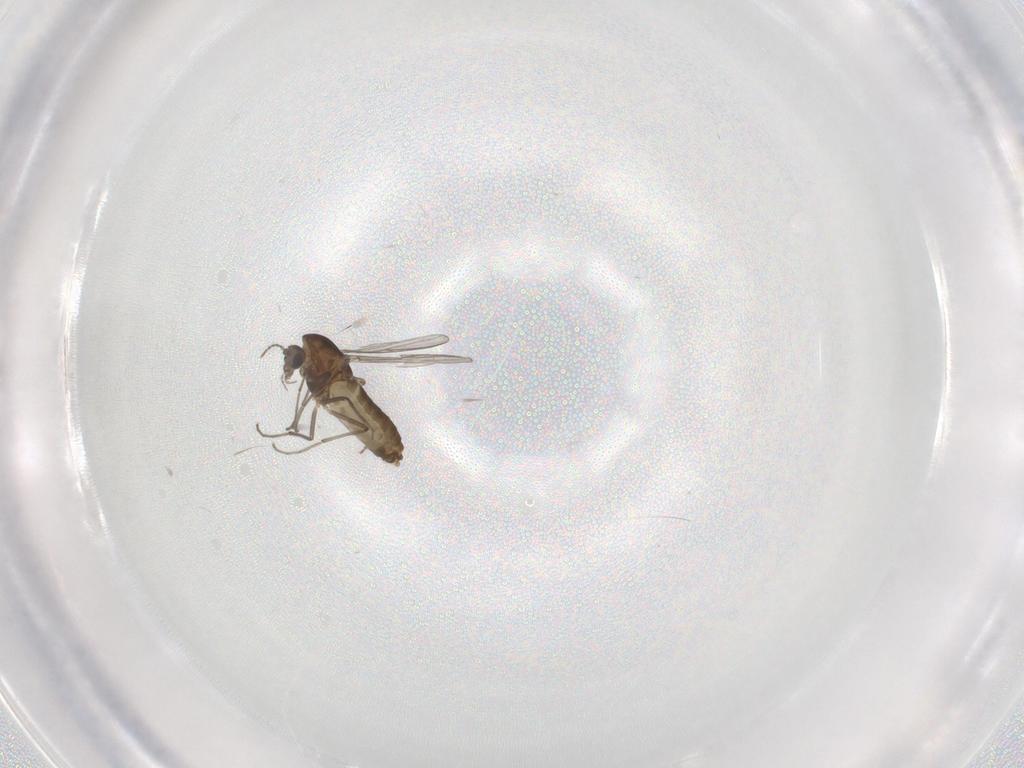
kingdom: Animalia
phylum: Arthropoda
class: Insecta
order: Diptera
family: Chironomidae
